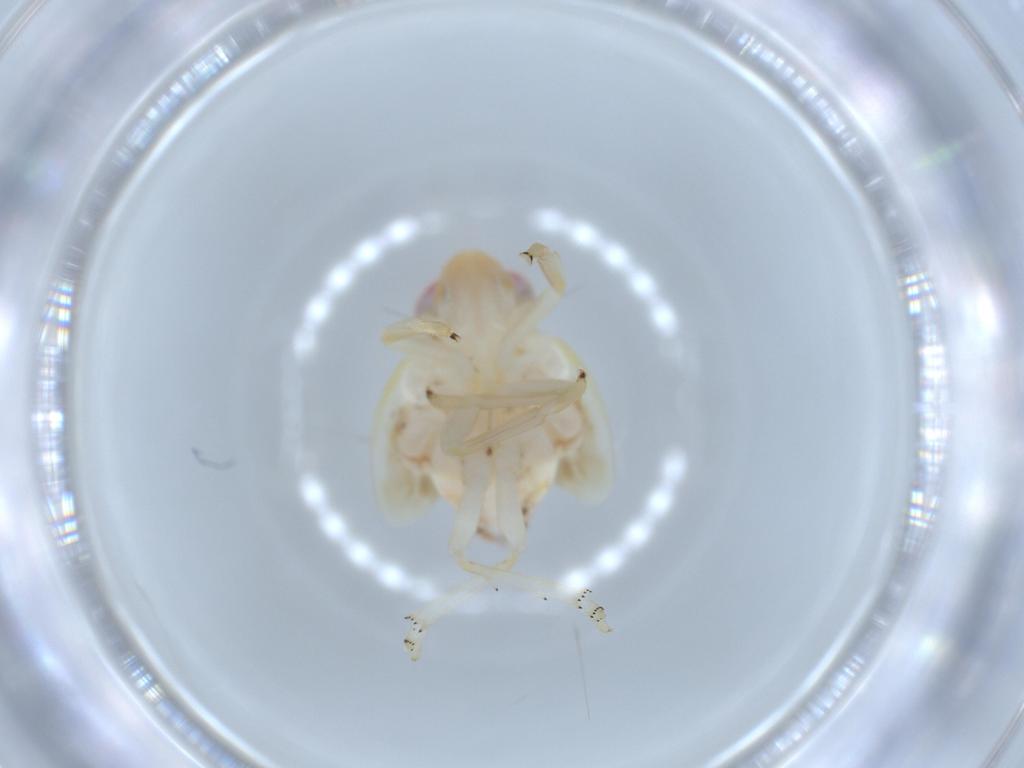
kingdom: Animalia
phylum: Arthropoda
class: Insecta
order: Hemiptera
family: Nogodinidae
